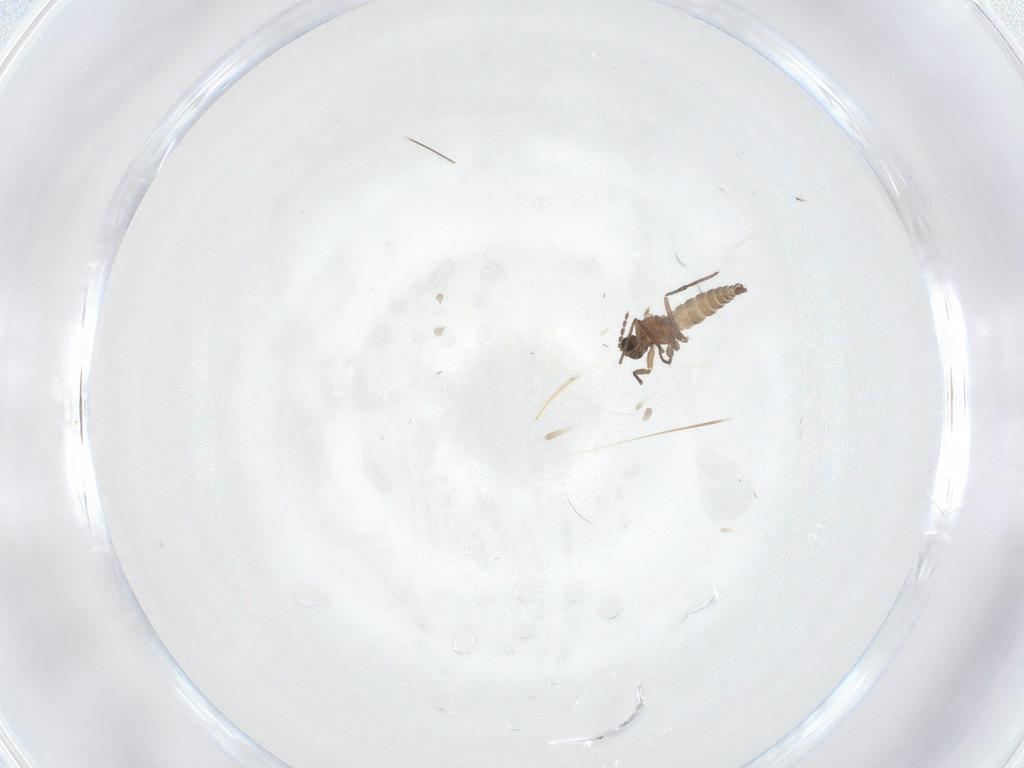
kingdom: Animalia
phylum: Arthropoda
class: Insecta
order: Diptera
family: Sciaridae
